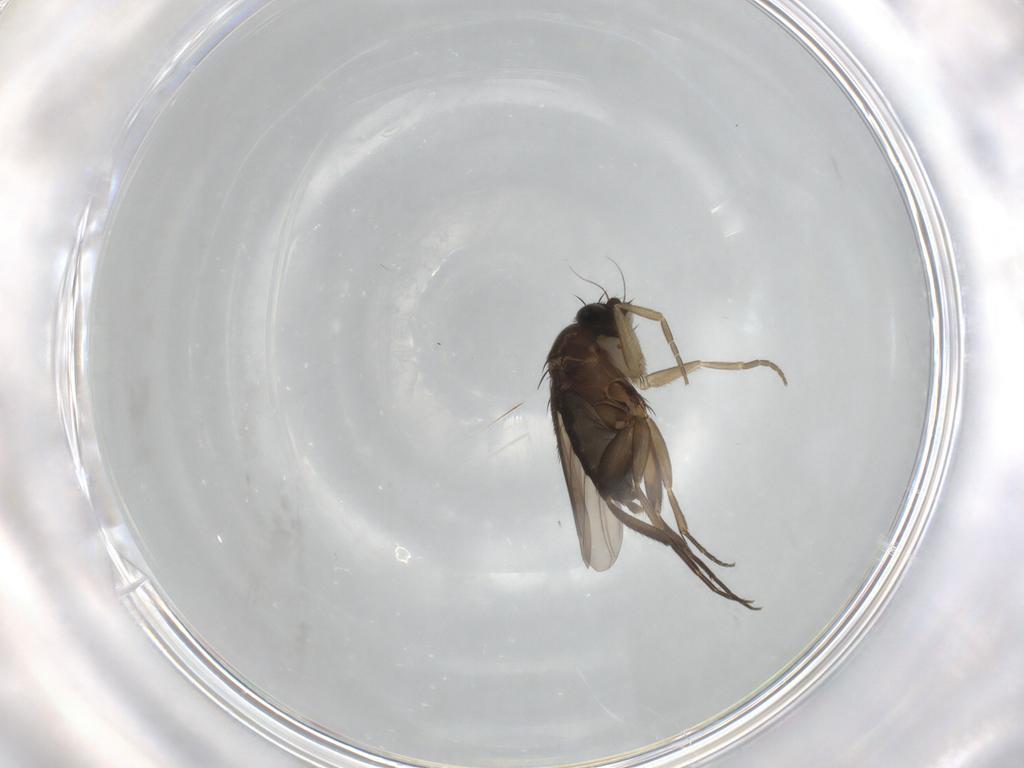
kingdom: Animalia
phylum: Arthropoda
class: Insecta
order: Diptera
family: Phoridae
